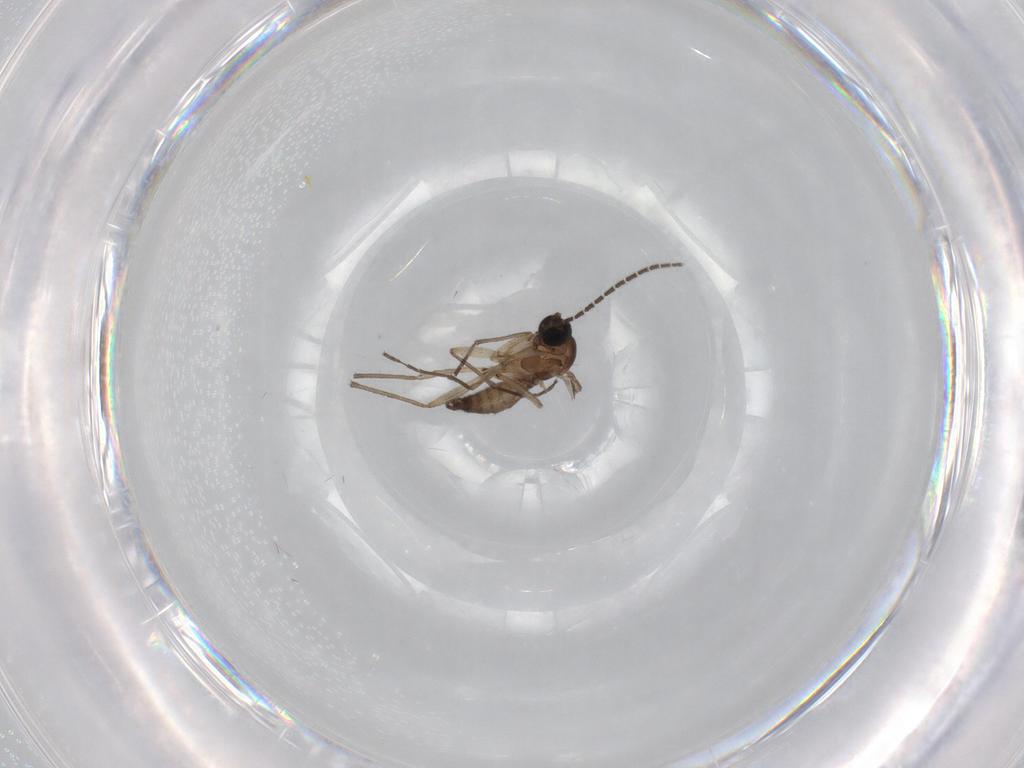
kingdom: Animalia
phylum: Arthropoda
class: Insecta
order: Diptera
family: Sciaridae
